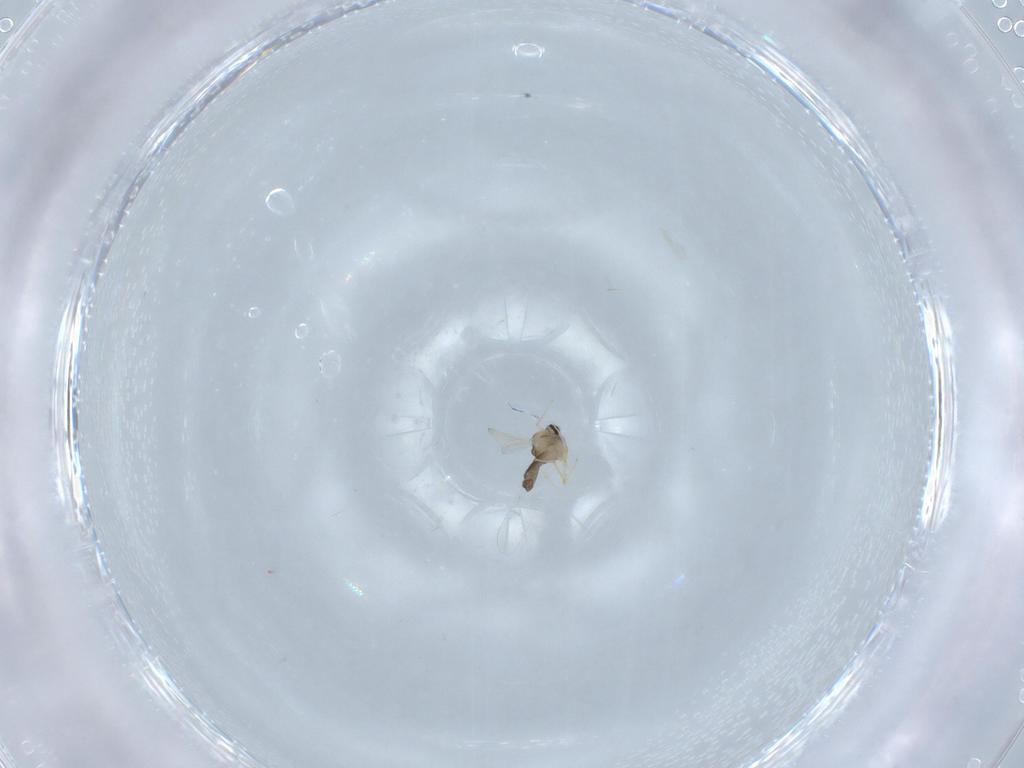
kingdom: Animalia
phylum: Arthropoda
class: Insecta
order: Diptera
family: Chironomidae
